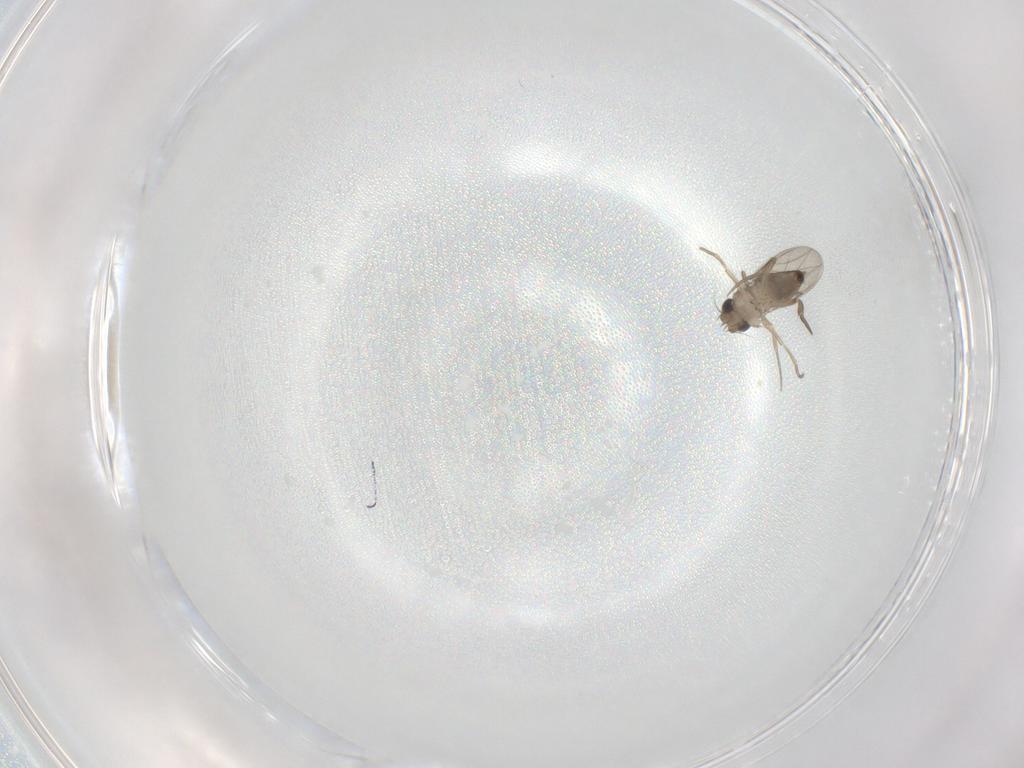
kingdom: Animalia
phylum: Arthropoda
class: Insecta
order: Diptera
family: Phoridae
